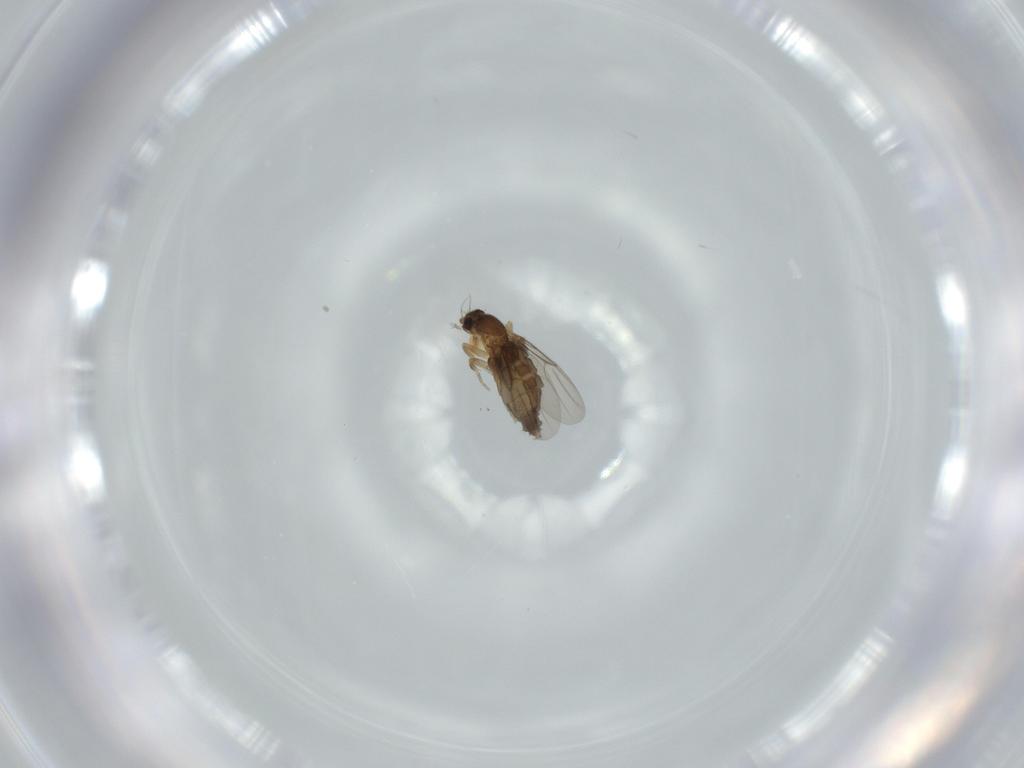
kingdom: Animalia
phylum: Arthropoda
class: Insecta
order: Diptera
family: Phoridae
